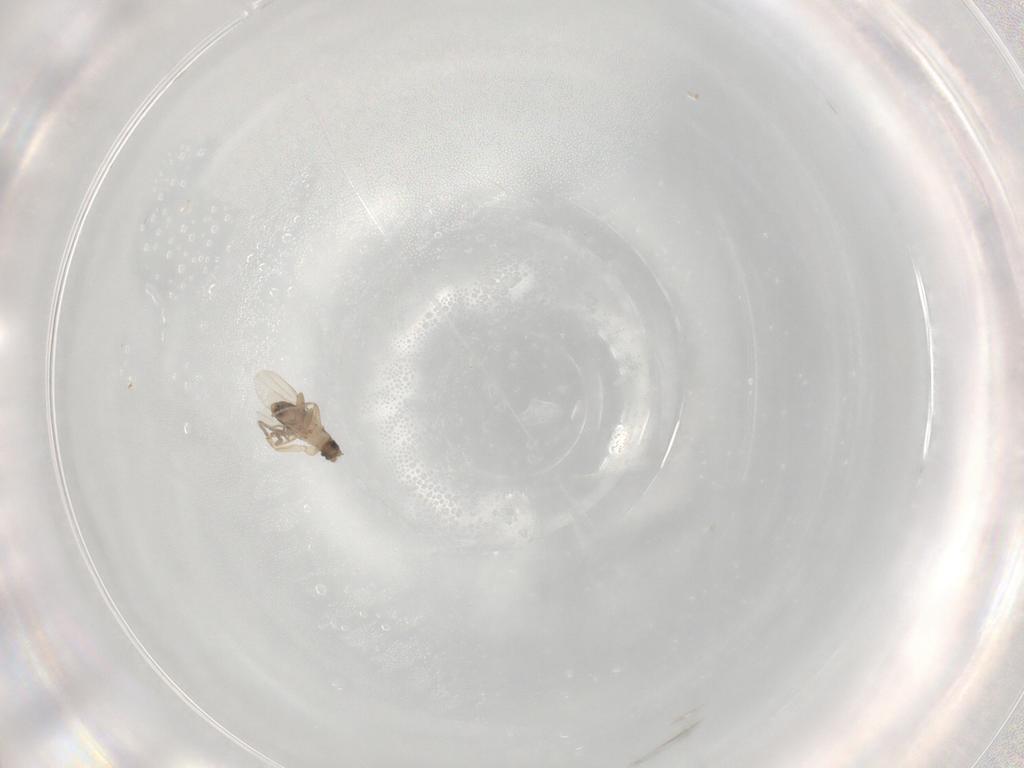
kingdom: Animalia
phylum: Arthropoda
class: Insecta
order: Diptera
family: Phoridae
